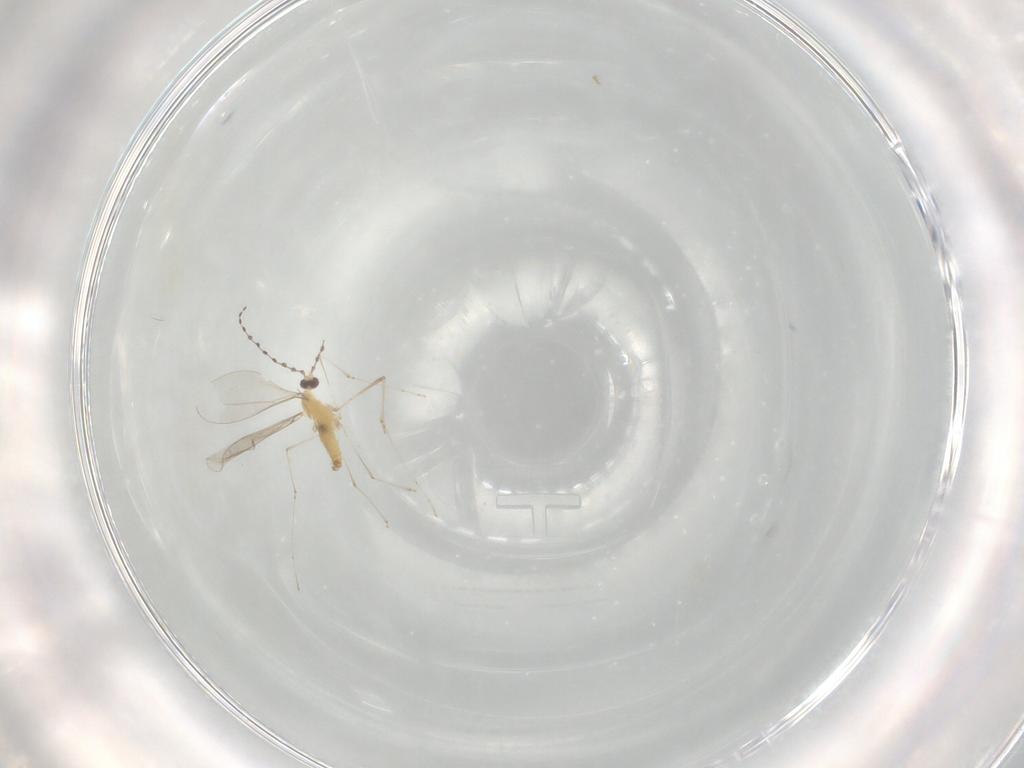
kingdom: Animalia
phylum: Arthropoda
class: Insecta
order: Diptera
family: Cecidomyiidae
